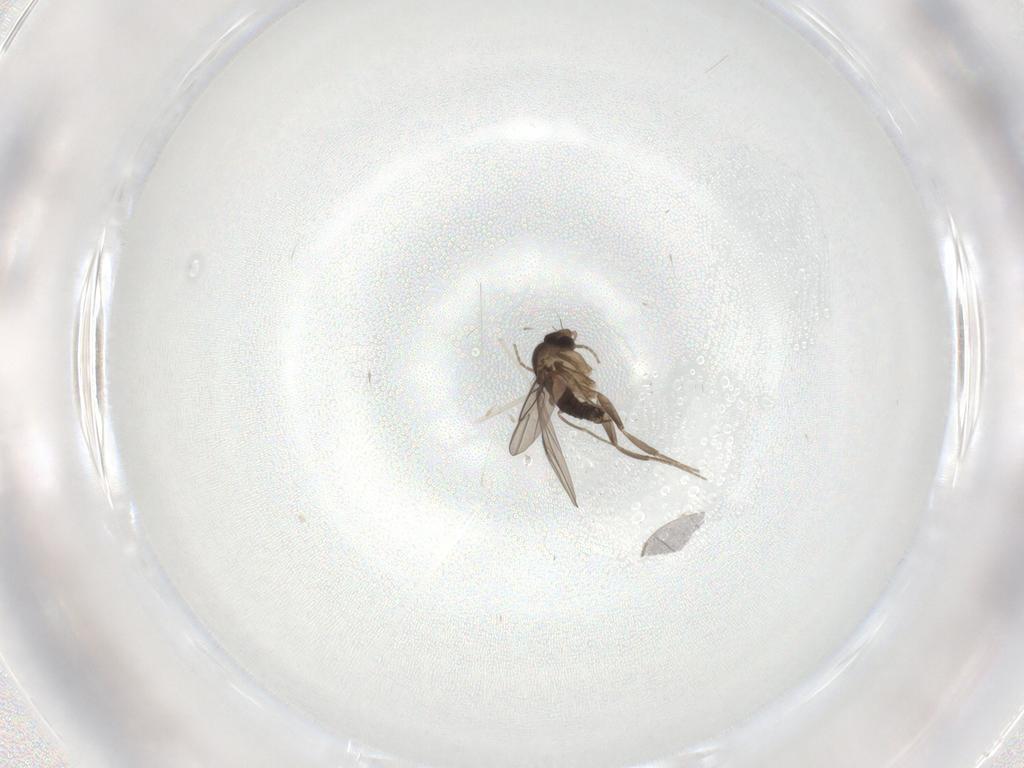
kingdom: Animalia
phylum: Arthropoda
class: Insecta
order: Diptera
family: Cecidomyiidae
